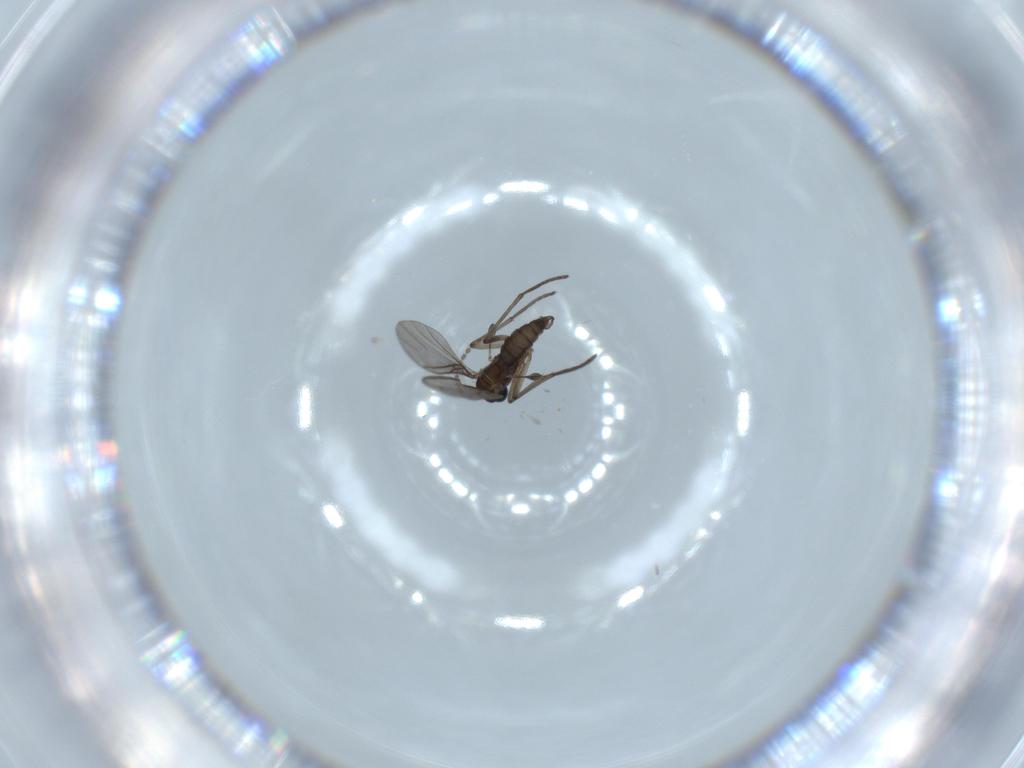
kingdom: Animalia
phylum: Arthropoda
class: Insecta
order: Diptera
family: Sciaridae
